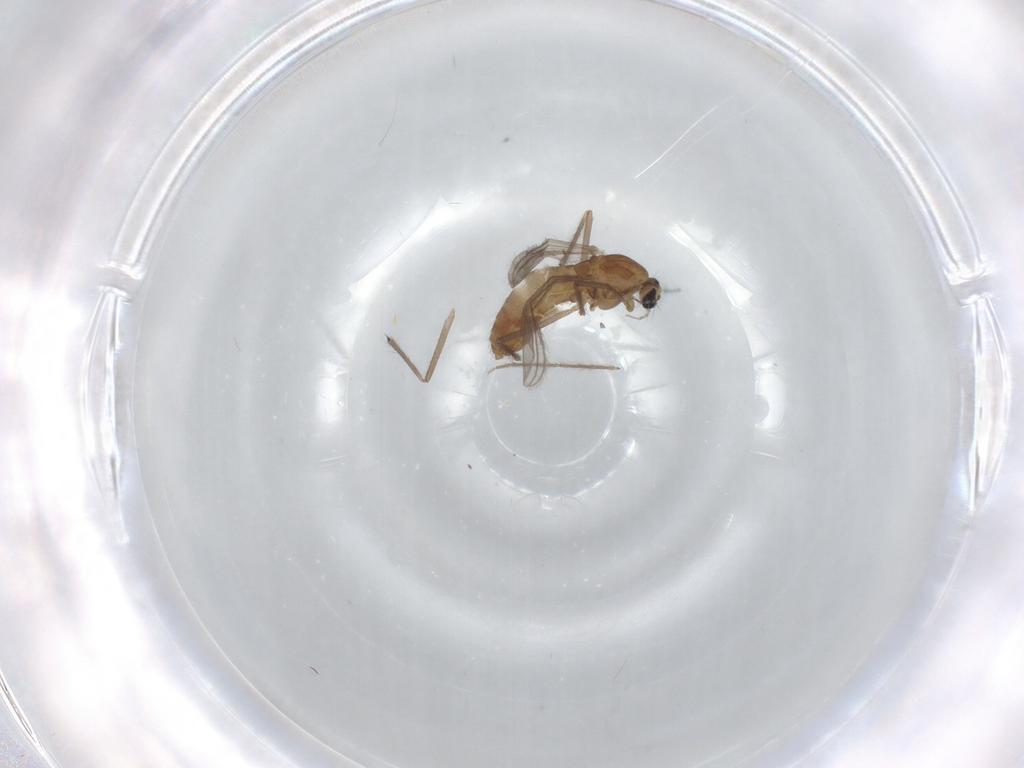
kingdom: Animalia
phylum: Arthropoda
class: Insecta
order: Diptera
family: Chironomidae
